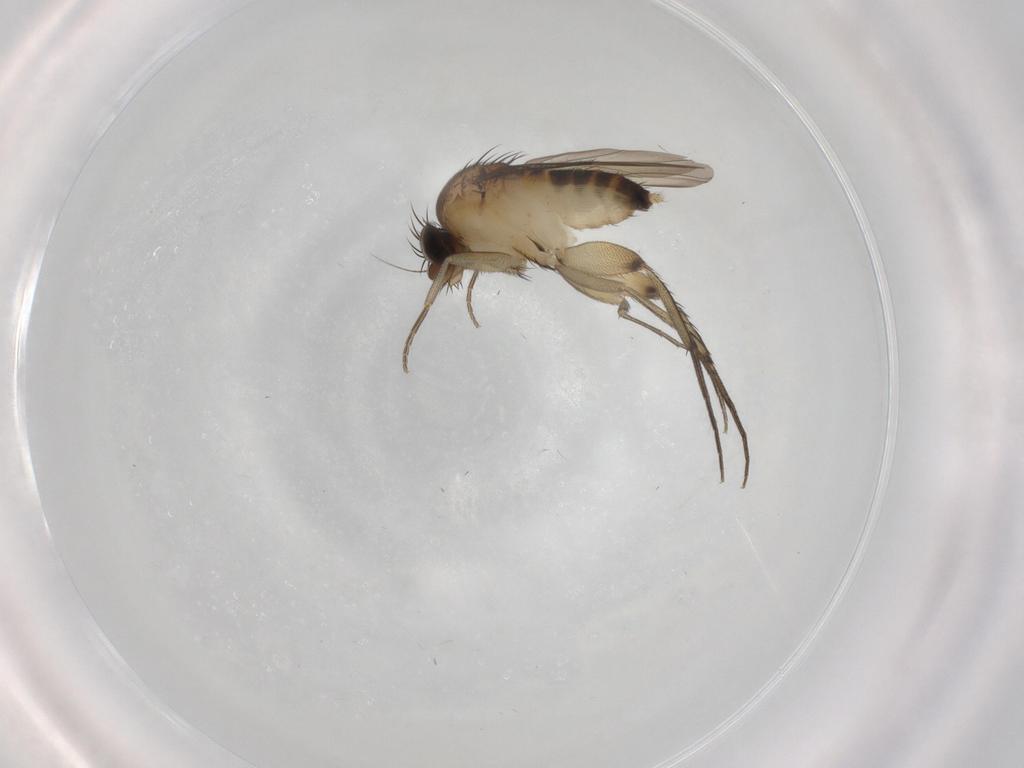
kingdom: Animalia
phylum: Arthropoda
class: Insecta
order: Diptera
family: Phoridae
